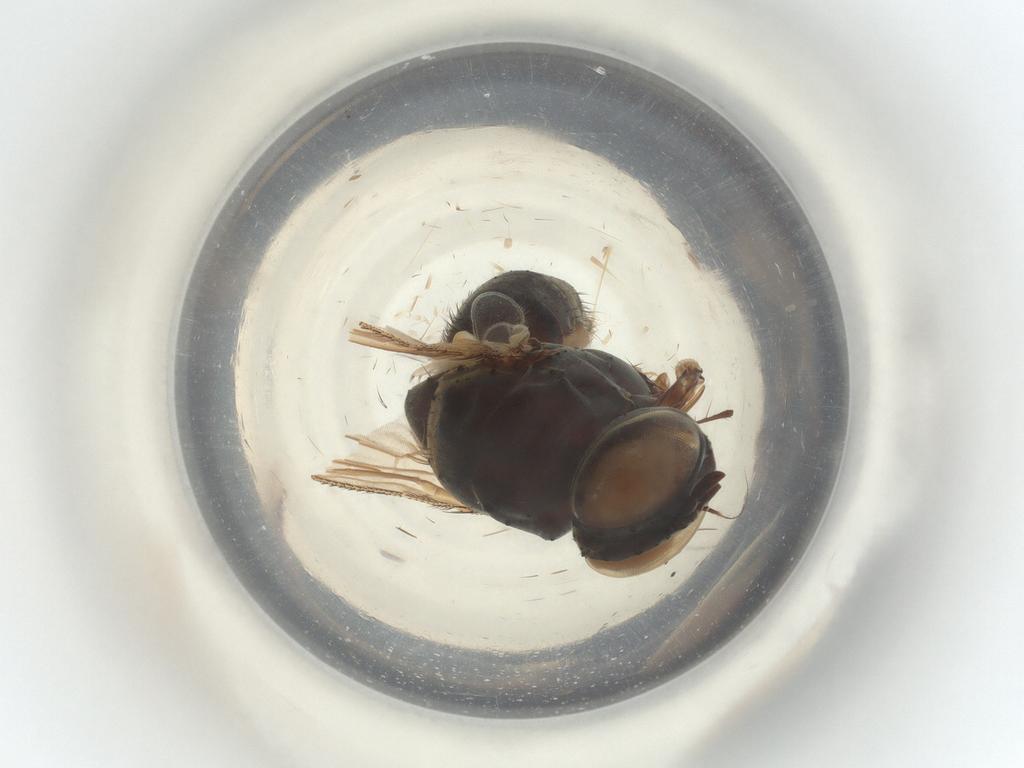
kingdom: Animalia
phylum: Arthropoda
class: Insecta
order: Diptera
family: Muscidae
